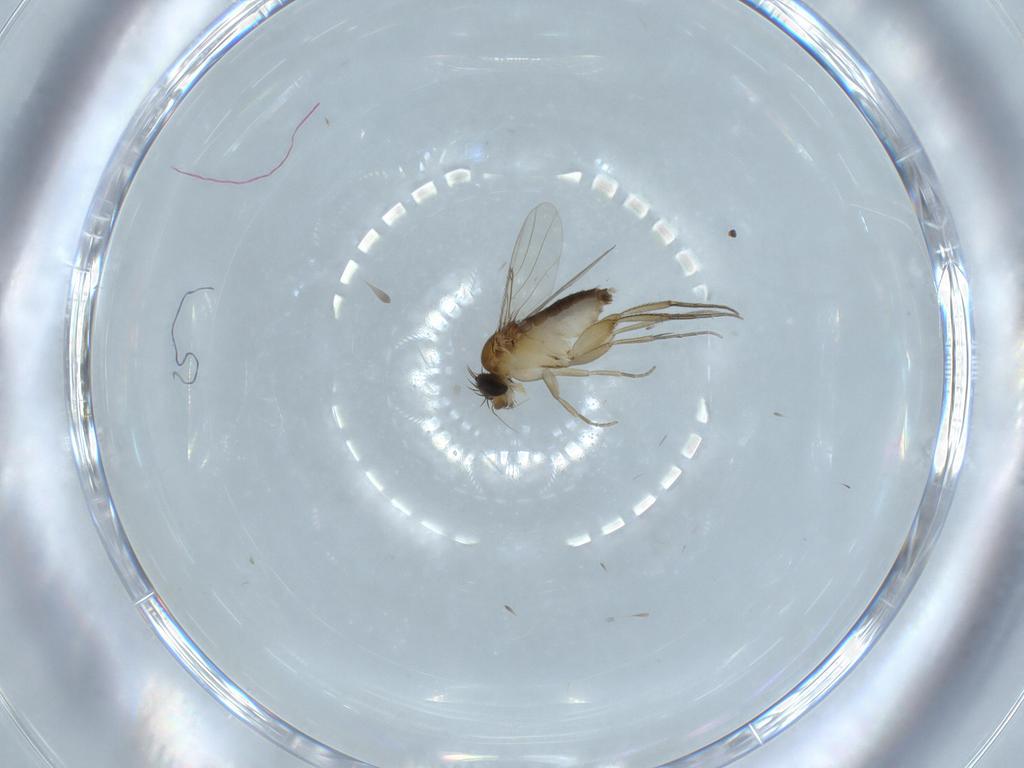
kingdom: Animalia
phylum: Arthropoda
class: Insecta
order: Diptera
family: Phoridae
